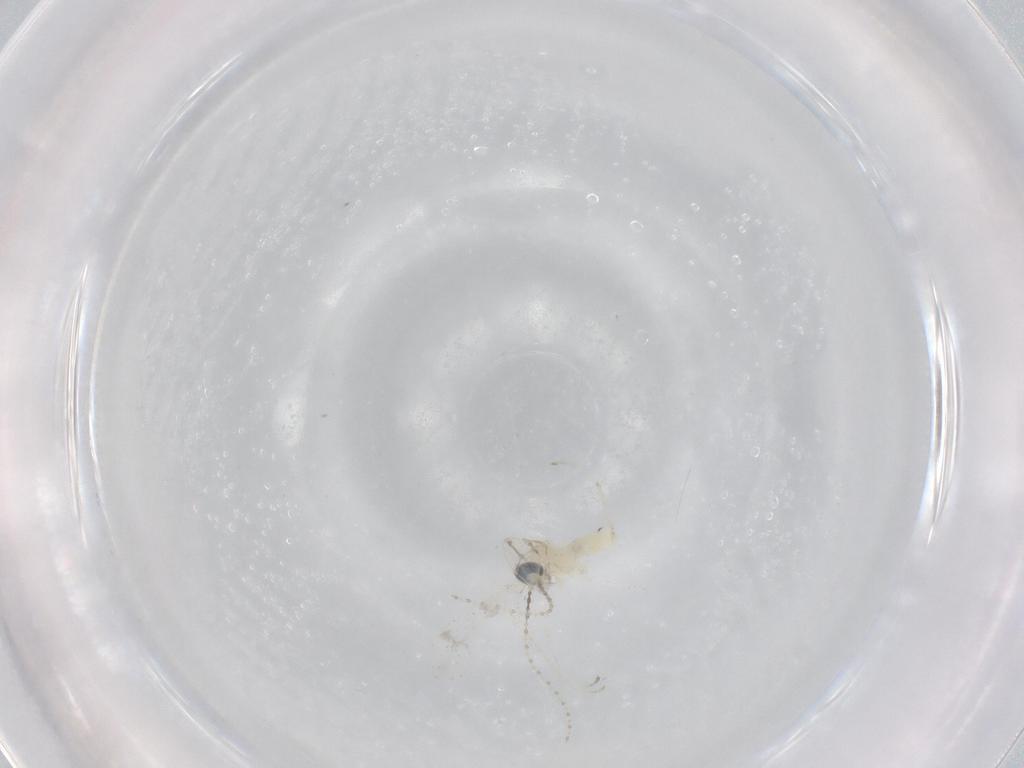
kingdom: Animalia
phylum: Arthropoda
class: Insecta
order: Diptera
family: Cecidomyiidae
